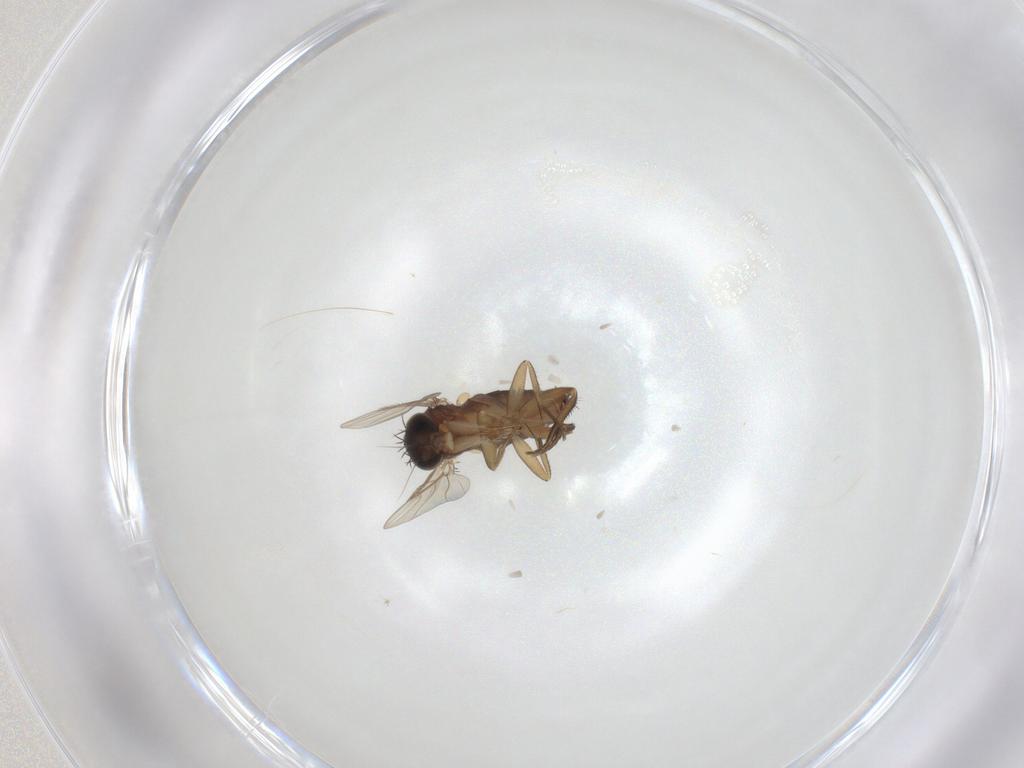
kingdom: Animalia
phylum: Arthropoda
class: Insecta
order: Diptera
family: Phoridae
